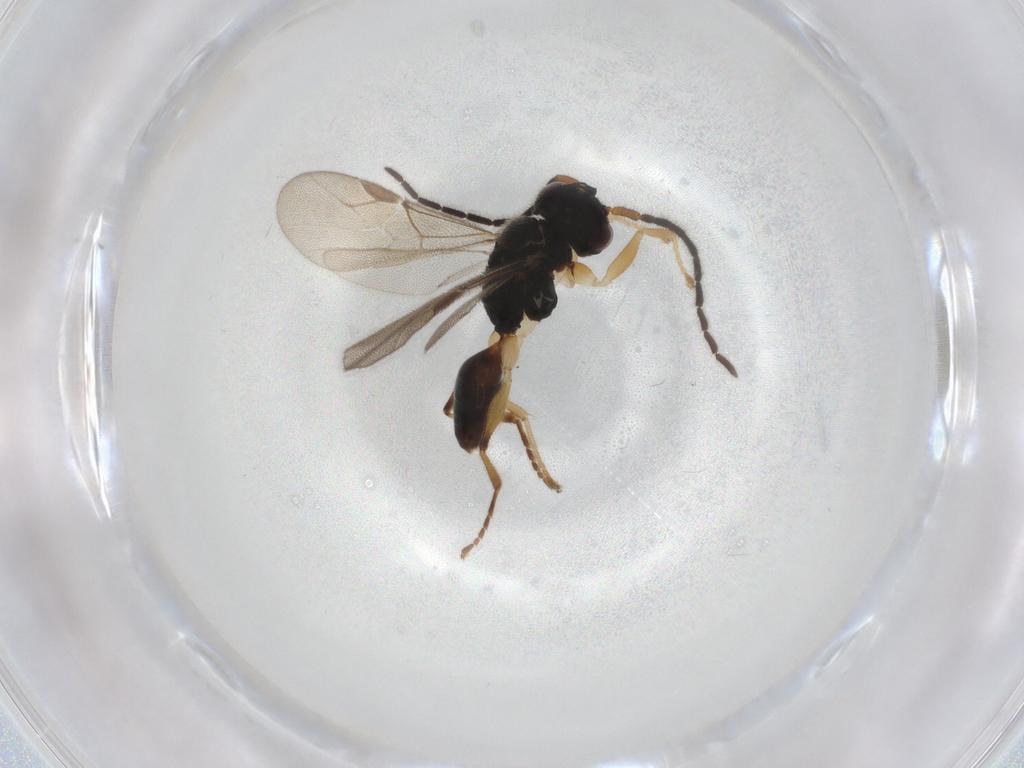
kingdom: Animalia
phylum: Arthropoda
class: Insecta
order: Hymenoptera
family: Dryinidae
